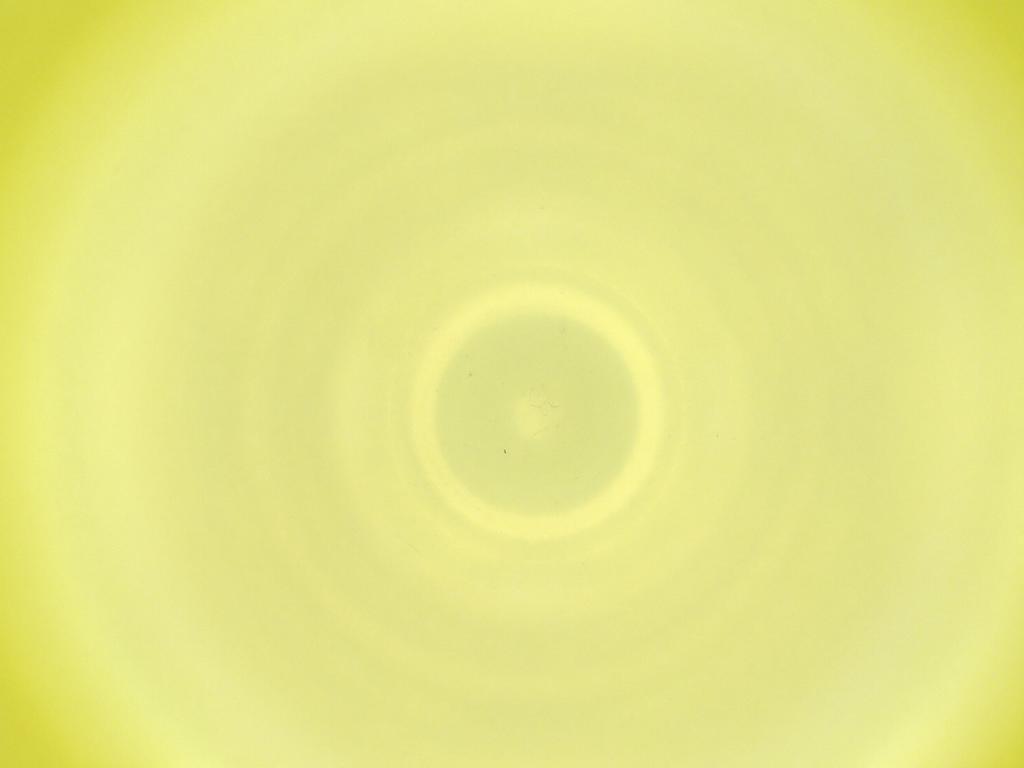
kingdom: Animalia
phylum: Arthropoda
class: Insecta
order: Diptera
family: Cecidomyiidae
